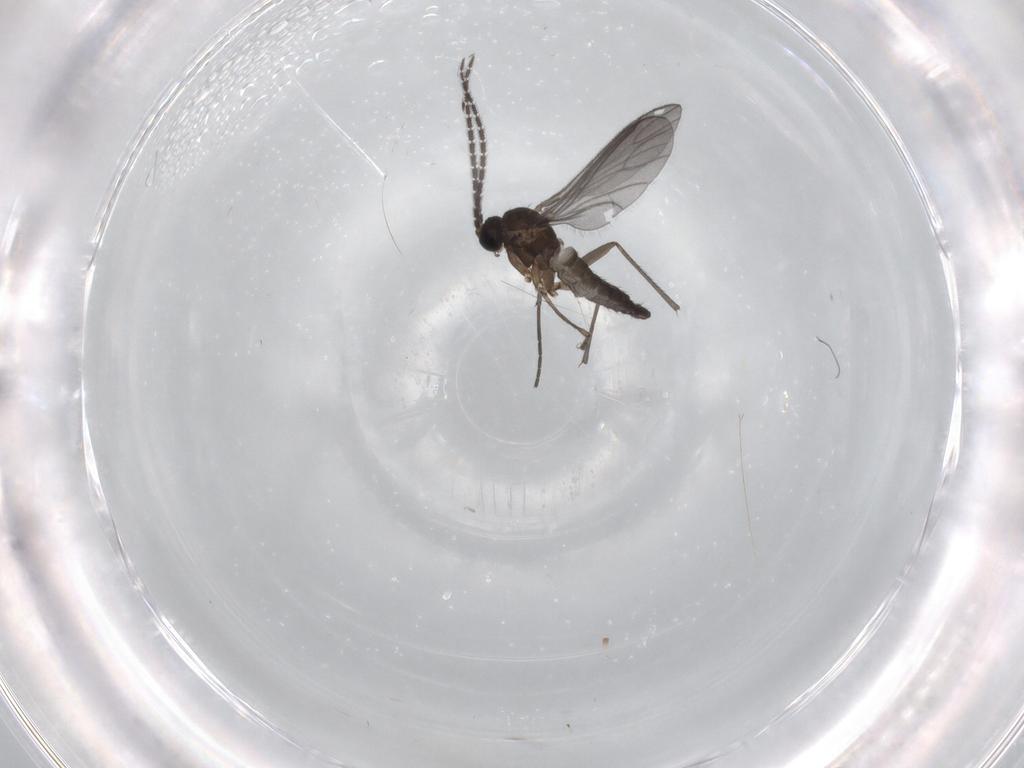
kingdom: Animalia
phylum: Arthropoda
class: Insecta
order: Diptera
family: Sciaridae
